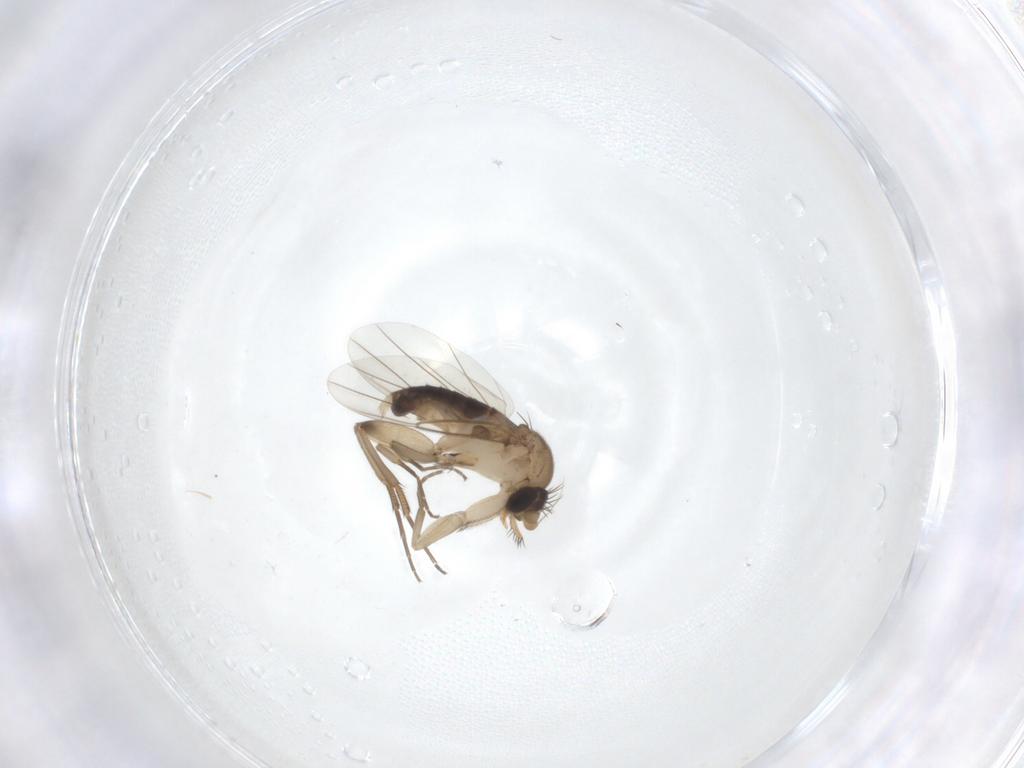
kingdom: Animalia
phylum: Arthropoda
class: Insecta
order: Diptera
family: Phoridae
